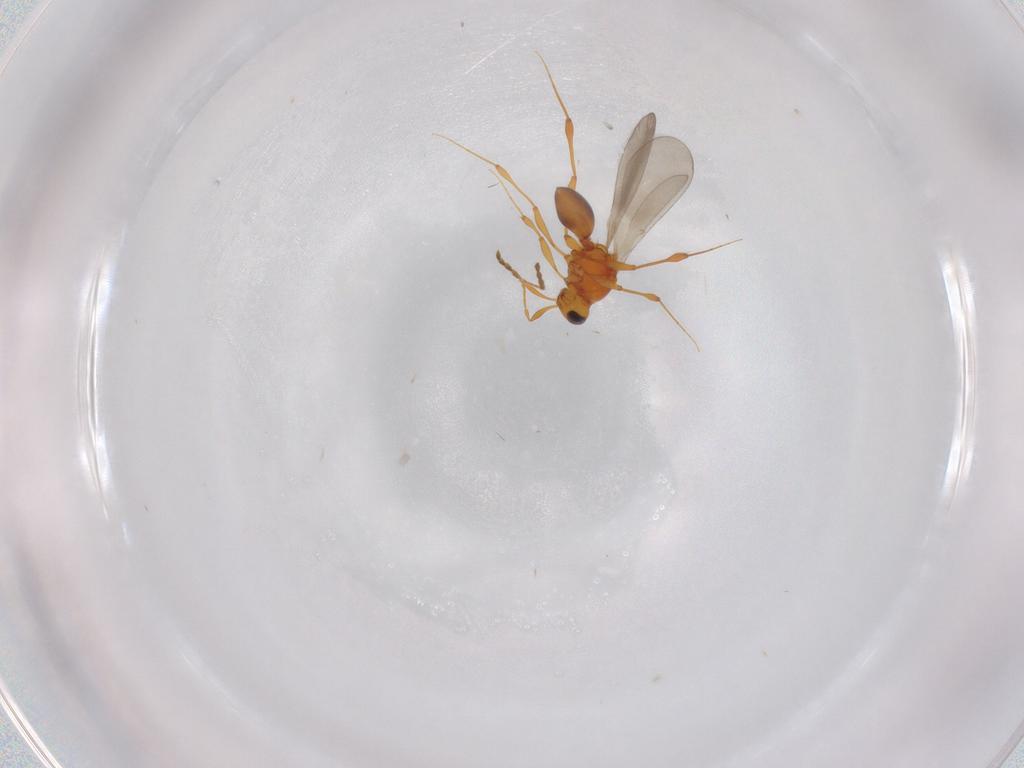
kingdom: Animalia
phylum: Arthropoda
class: Insecta
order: Hymenoptera
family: Platygastridae
